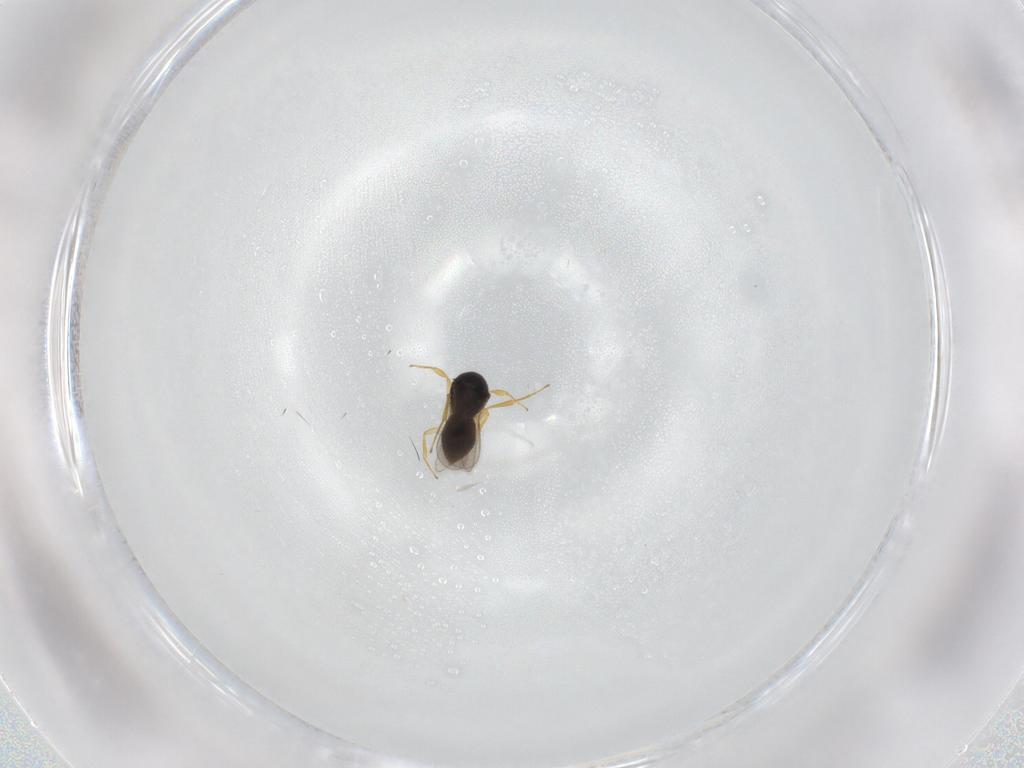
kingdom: Animalia
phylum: Arthropoda
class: Insecta
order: Hymenoptera
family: Scelionidae
